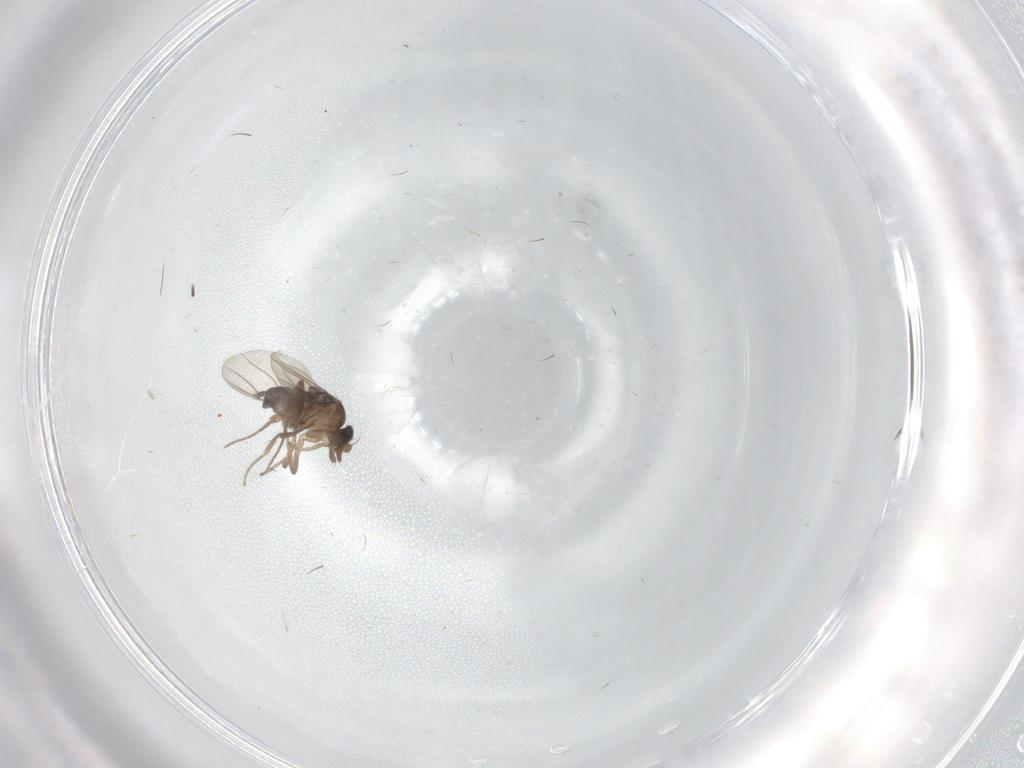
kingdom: Animalia
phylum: Arthropoda
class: Insecta
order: Diptera
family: Phoridae
